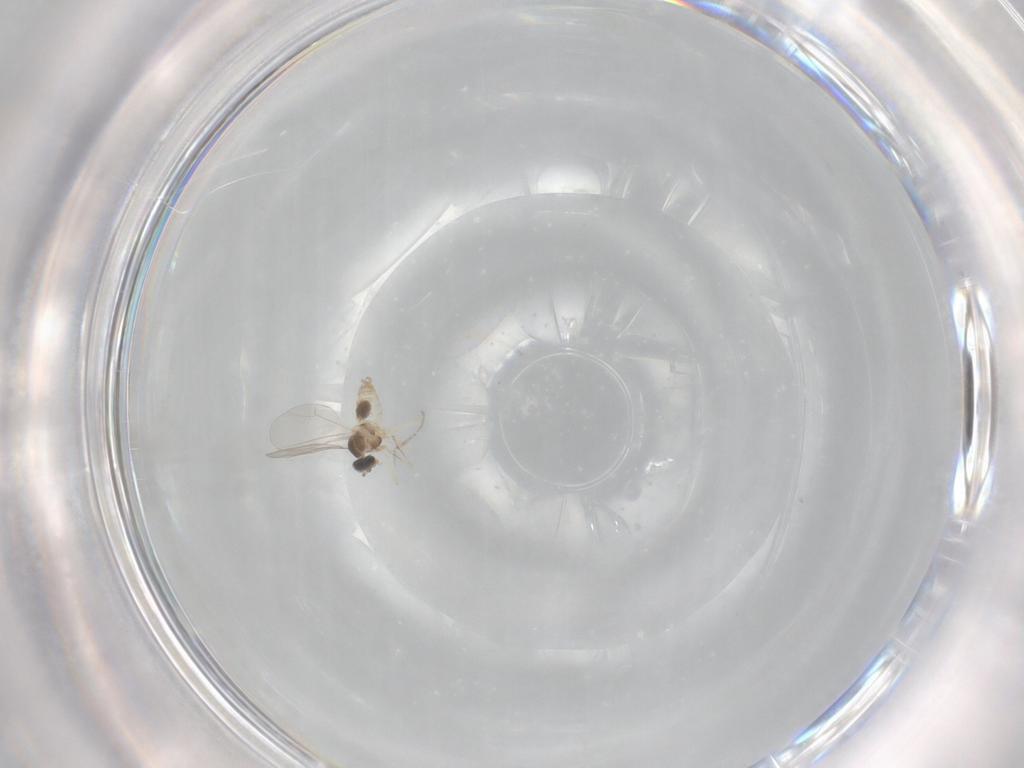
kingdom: Animalia
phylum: Arthropoda
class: Insecta
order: Diptera
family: Cecidomyiidae
